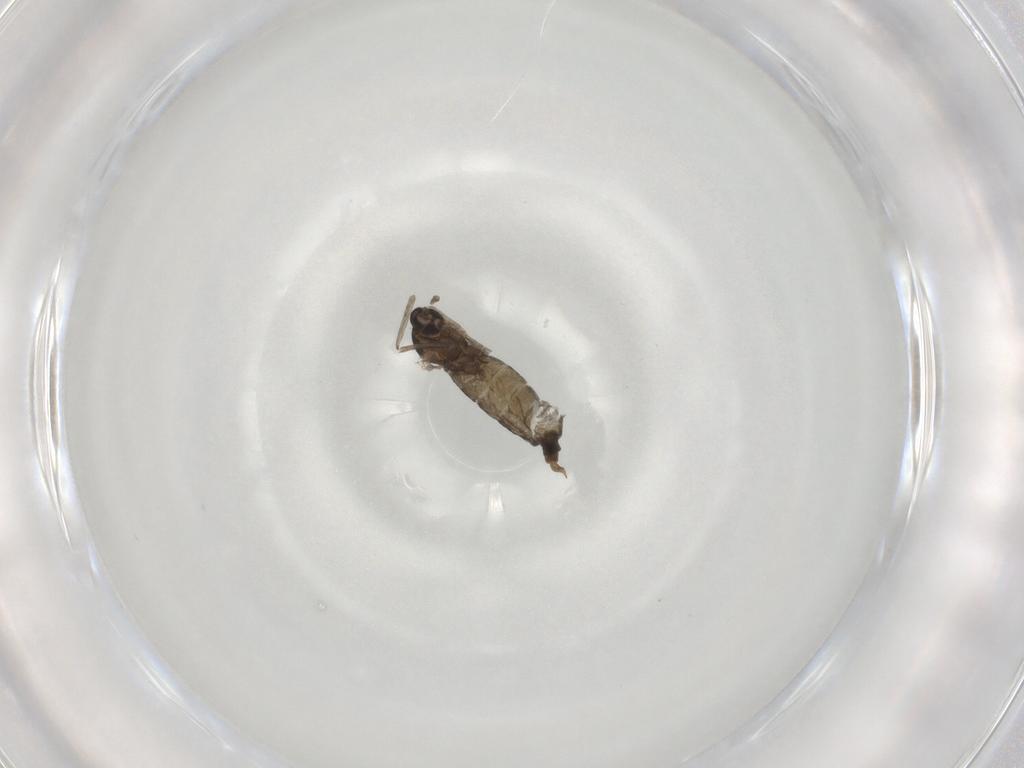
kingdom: Animalia
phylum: Arthropoda
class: Insecta
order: Diptera
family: Cecidomyiidae
